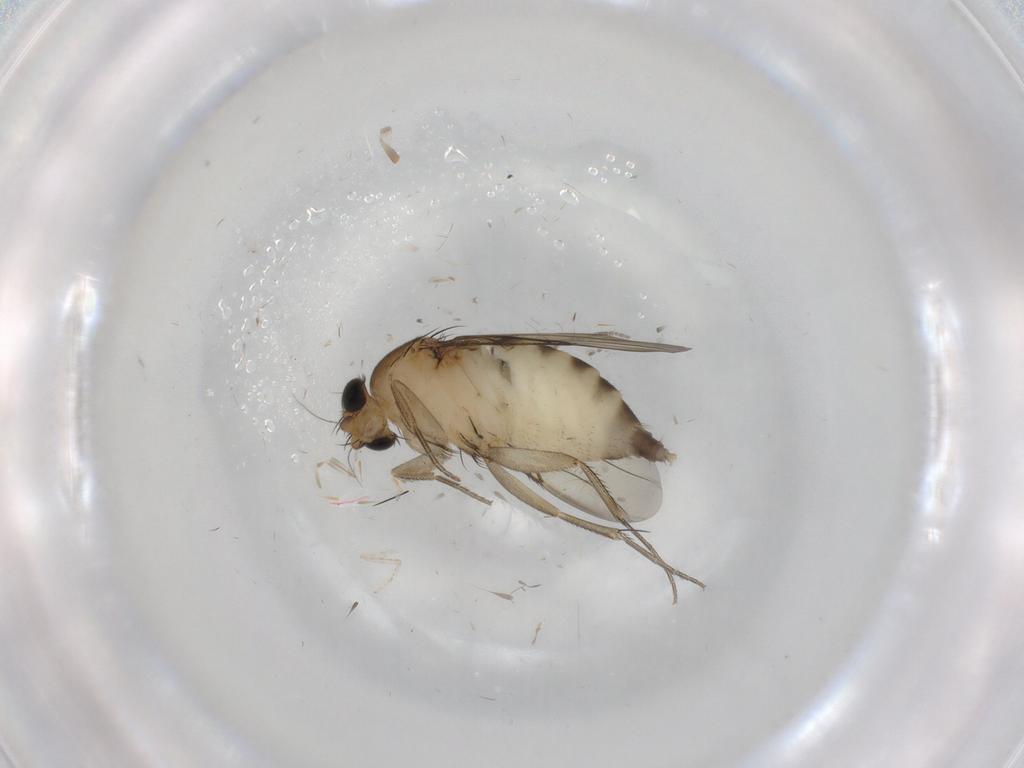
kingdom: Animalia
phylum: Arthropoda
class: Insecta
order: Diptera
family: Phoridae
